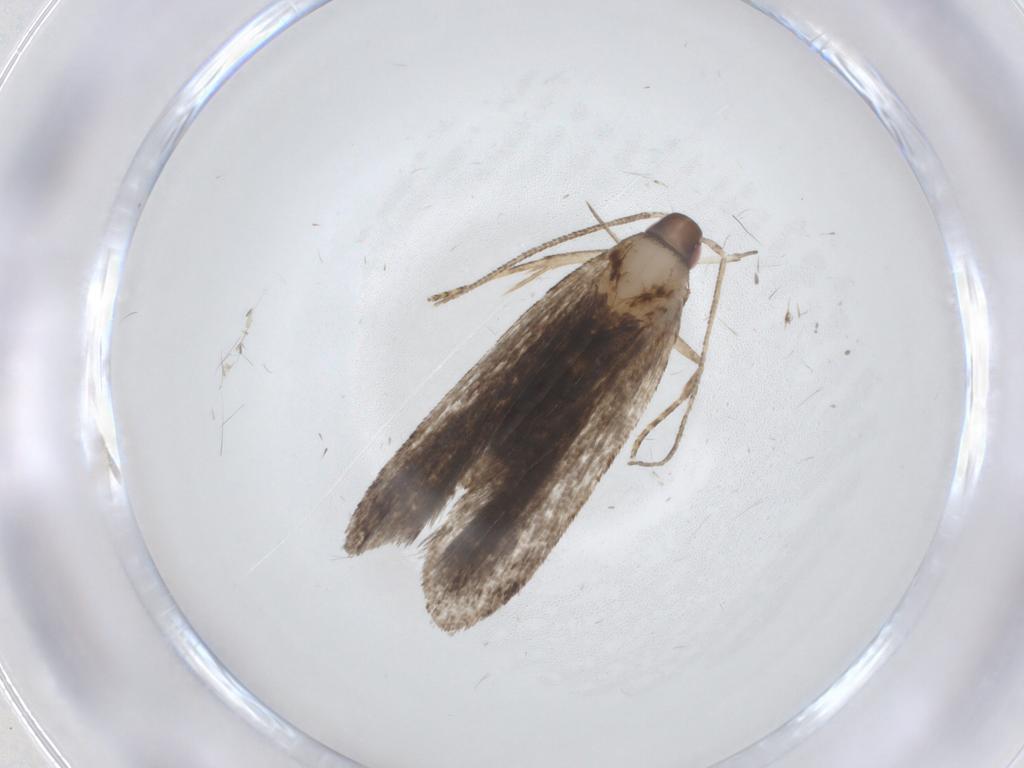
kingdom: Animalia
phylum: Arthropoda
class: Insecta
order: Lepidoptera
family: Gelechiidae
